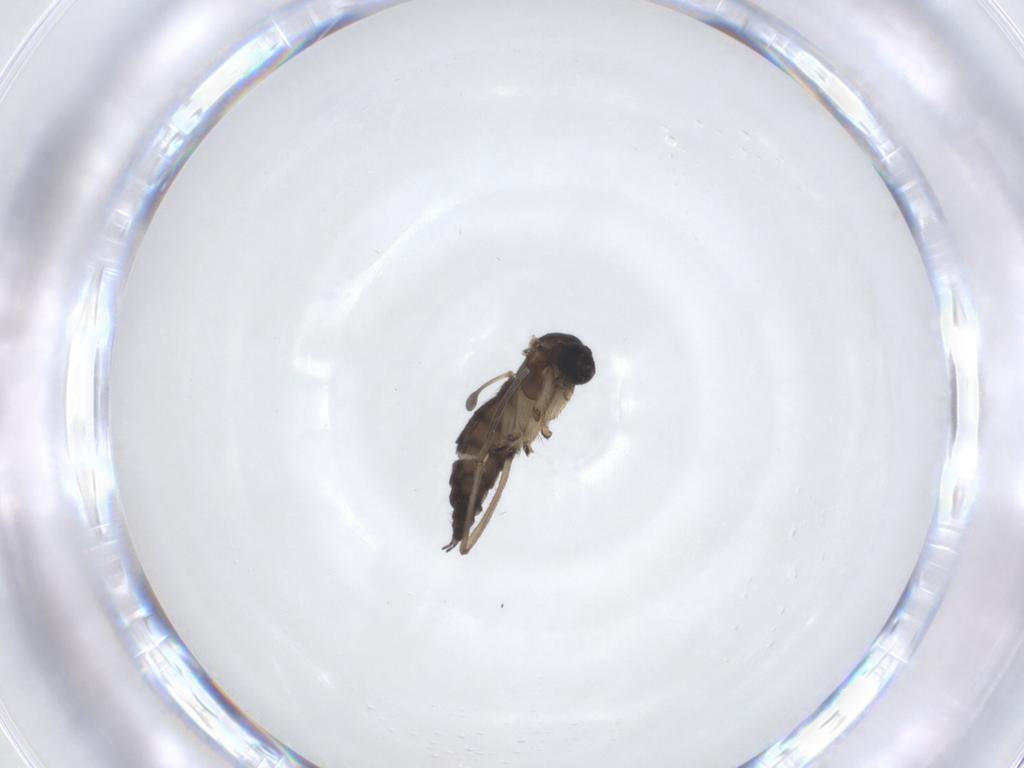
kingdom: Animalia
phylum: Arthropoda
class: Insecta
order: Diptera
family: Sciaridae
